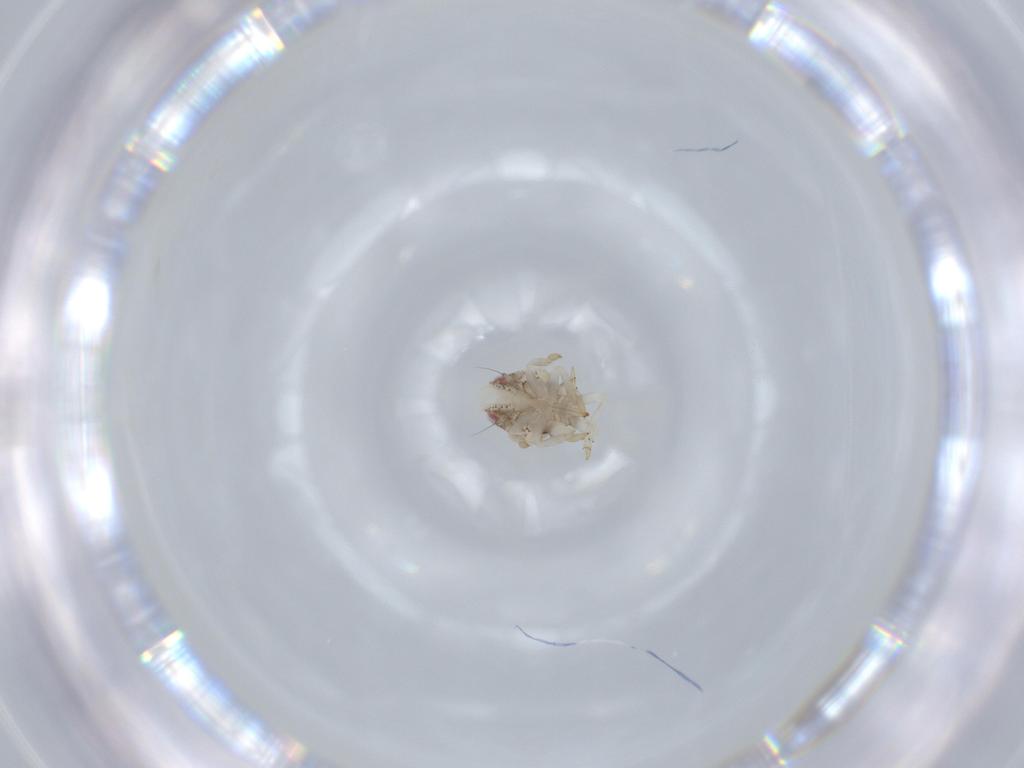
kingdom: Animalia
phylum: Arthropoda
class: Insecta
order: Hemiptera
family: Acanaloniidae
